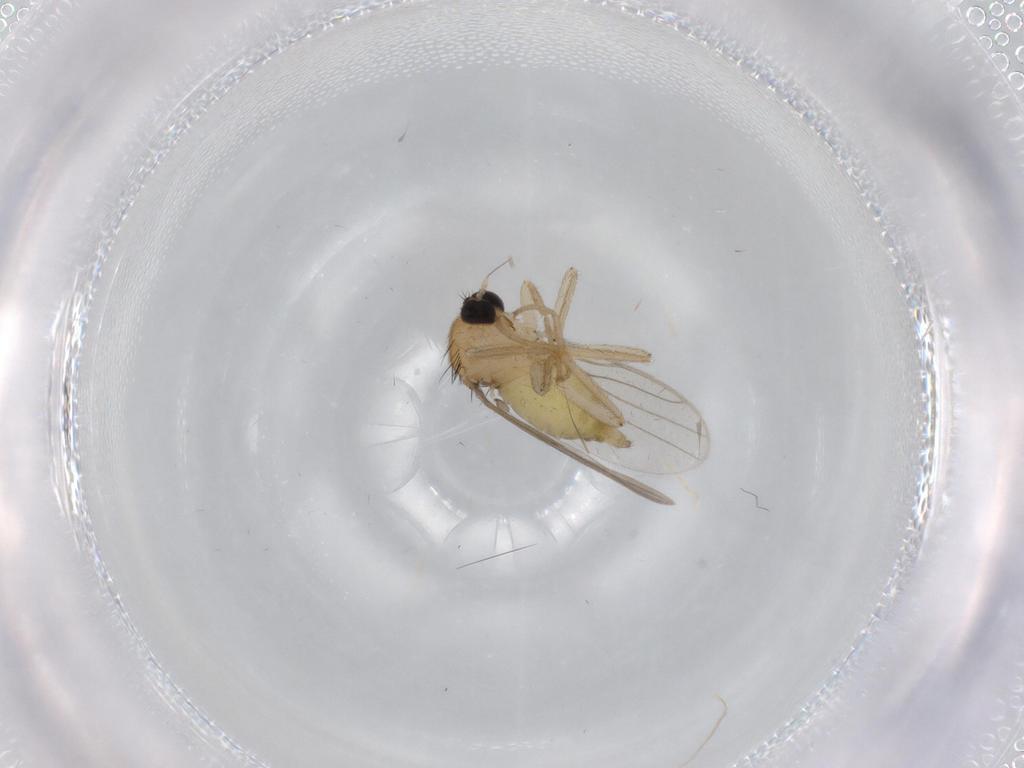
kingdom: Animalia
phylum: Arthropoda
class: Insecta
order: Diptera
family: Hybotidae
